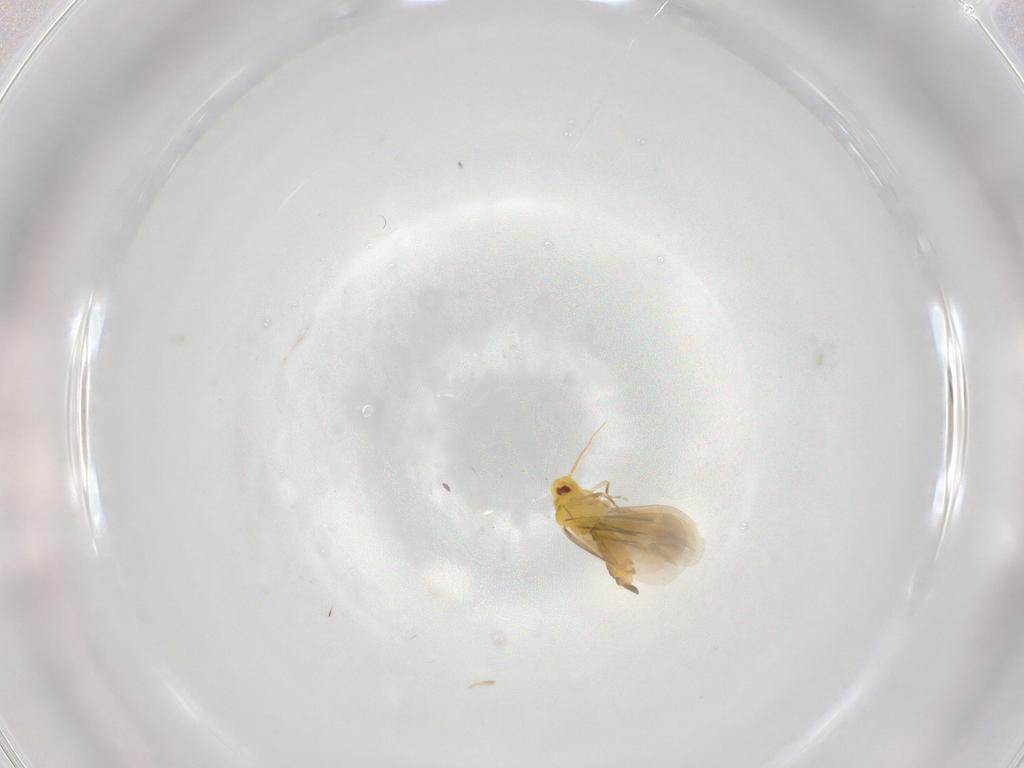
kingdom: Animalia
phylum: Arthropoda
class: Insecta
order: Hemiptera
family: Aleyrodidae
